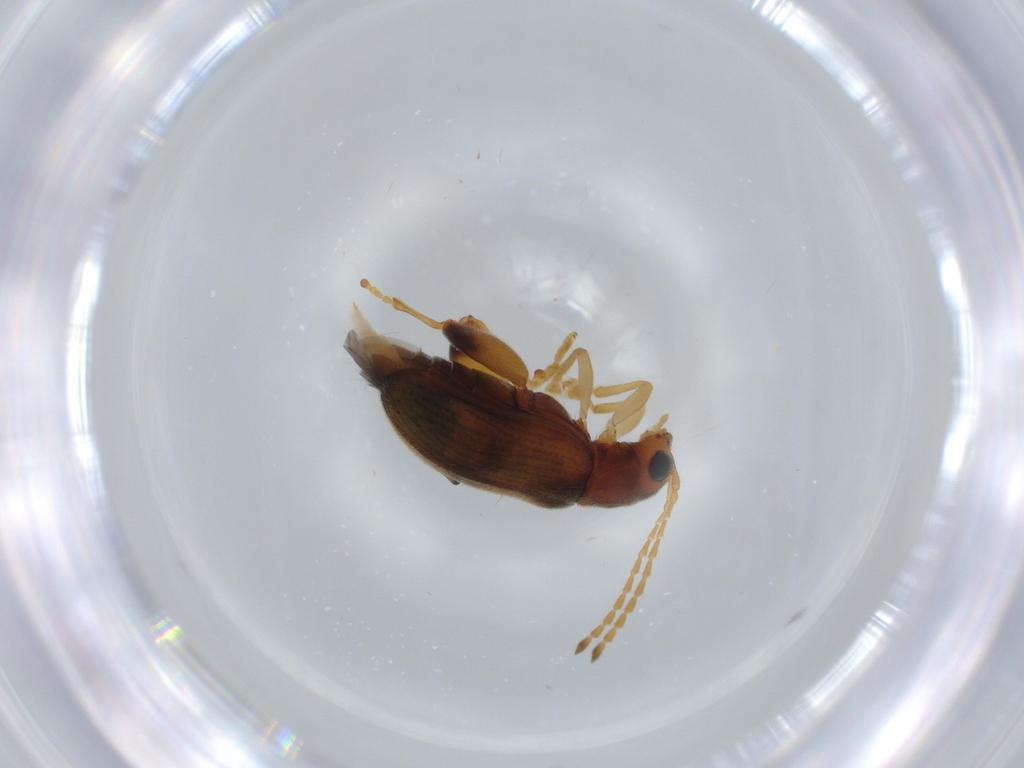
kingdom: Animalia
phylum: Arthropoda
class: Insecta
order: Coleoptera
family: Chrysomelidae
